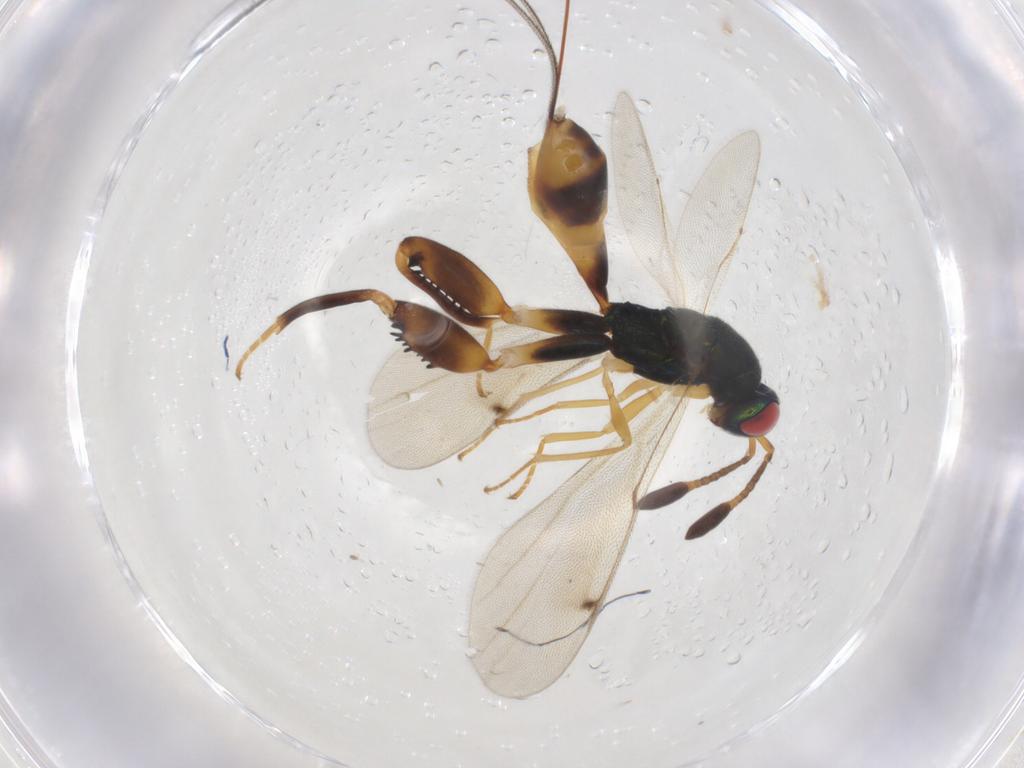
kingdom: Animalia
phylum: Arthropoda
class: Insecta
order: Hymenoptera
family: Torymidae
